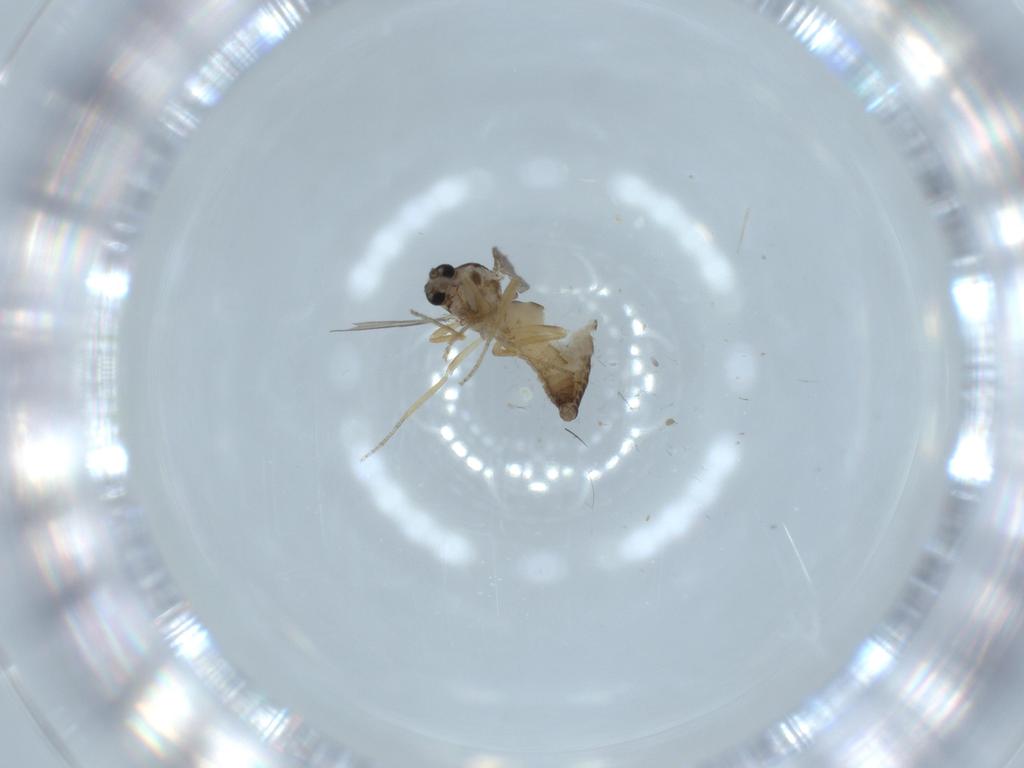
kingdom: Animalia
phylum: Arthropoda
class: Insecta
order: Diptera
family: Ceratopogonidae
